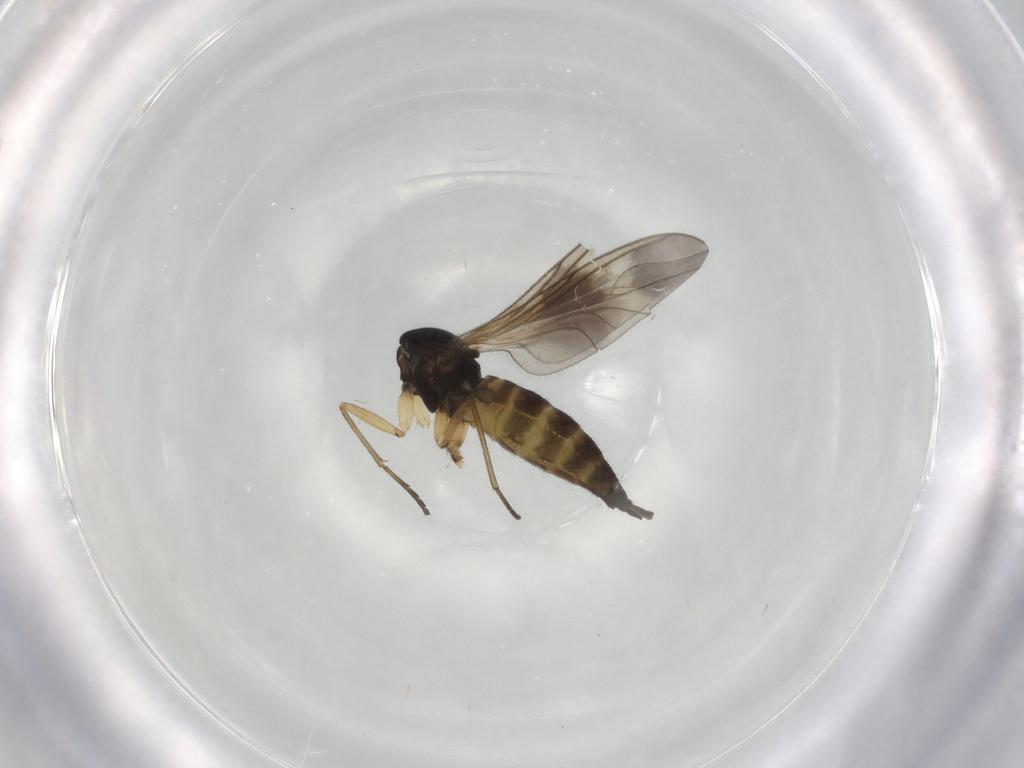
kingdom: Animalia
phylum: Arthropoda
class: Insecta
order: Diptera
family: Sciaridae
